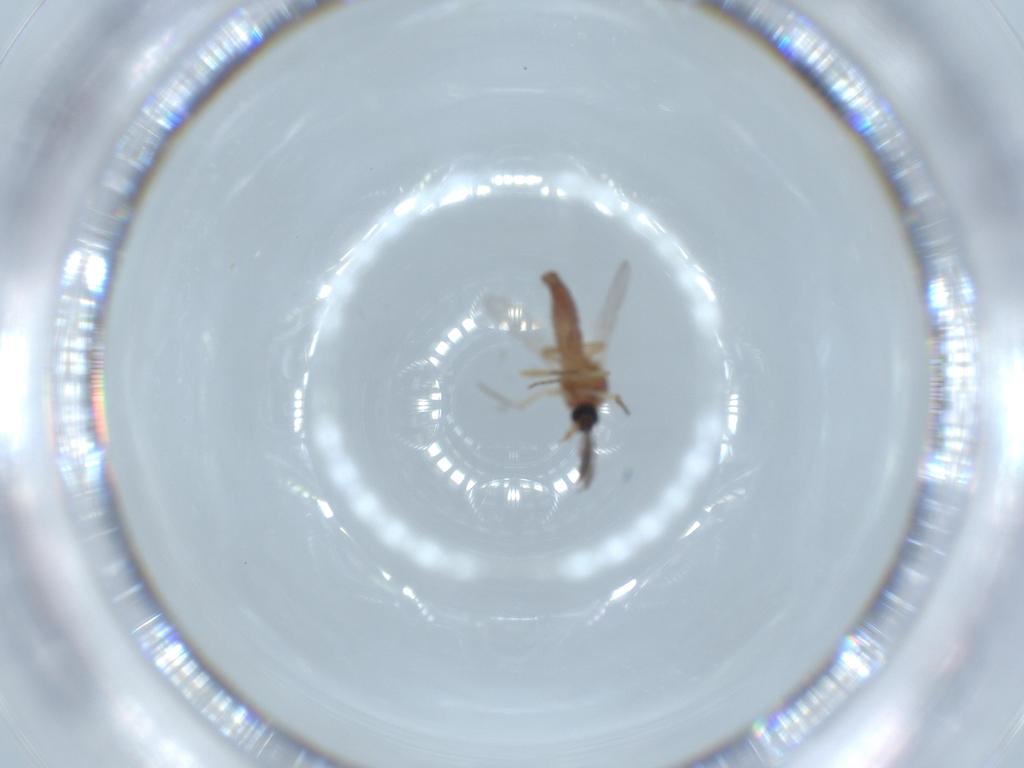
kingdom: Animalia
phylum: Arthropoda
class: Insecta
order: Diptera
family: Ceratopogonidae
